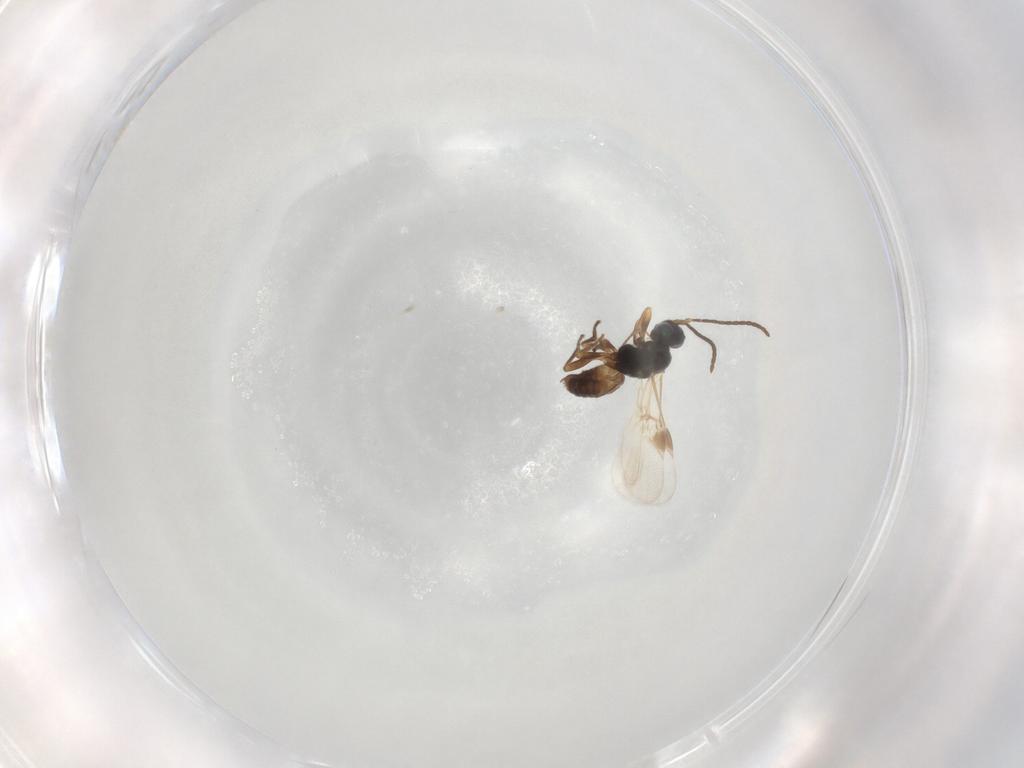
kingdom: Animalia
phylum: Arthropoda
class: Insecta
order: Hymenoptera
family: Braconidae
